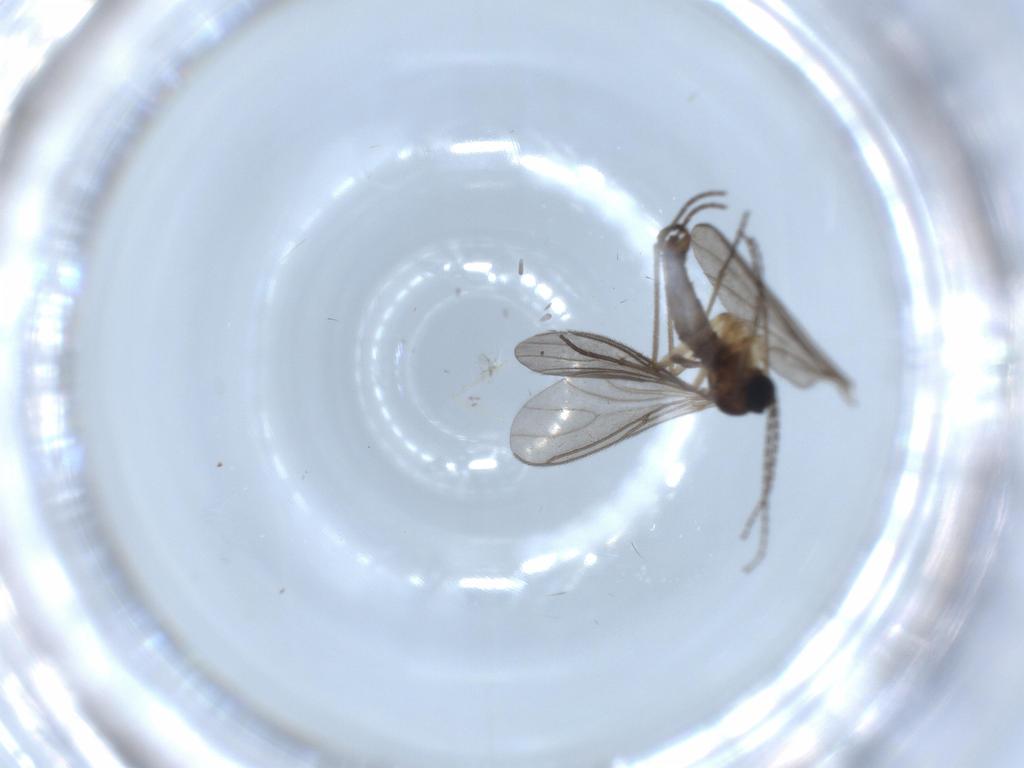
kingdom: Animalia
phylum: Arthropoda
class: Insecta
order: Diptera
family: Sciaridae
